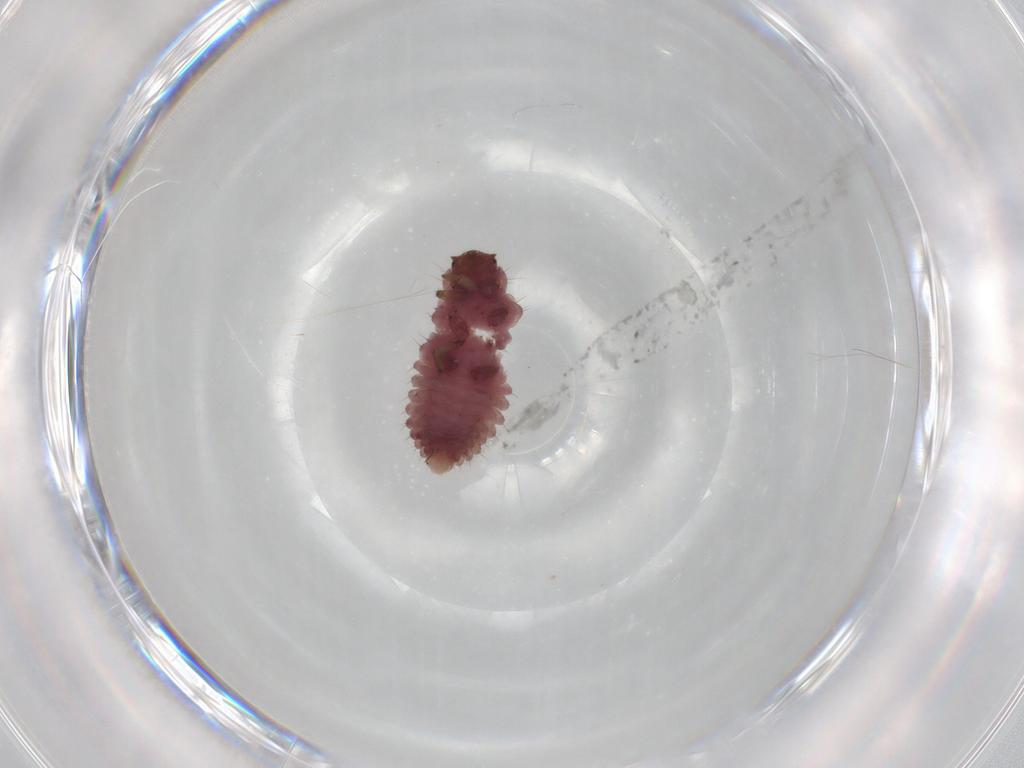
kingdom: Animalia
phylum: Arthropoda
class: Insecta
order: Coleoptera
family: Coccinellidae
